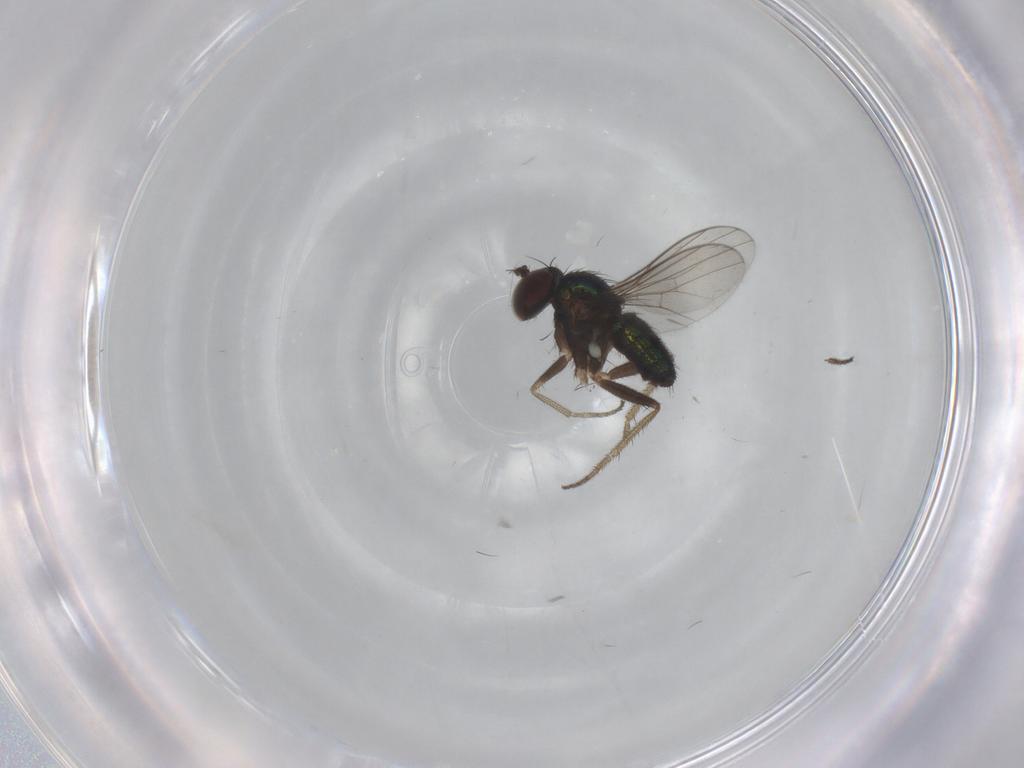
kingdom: Animalia
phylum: Arthropoda
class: Insecta
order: Diptera
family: Dolichopodidae
